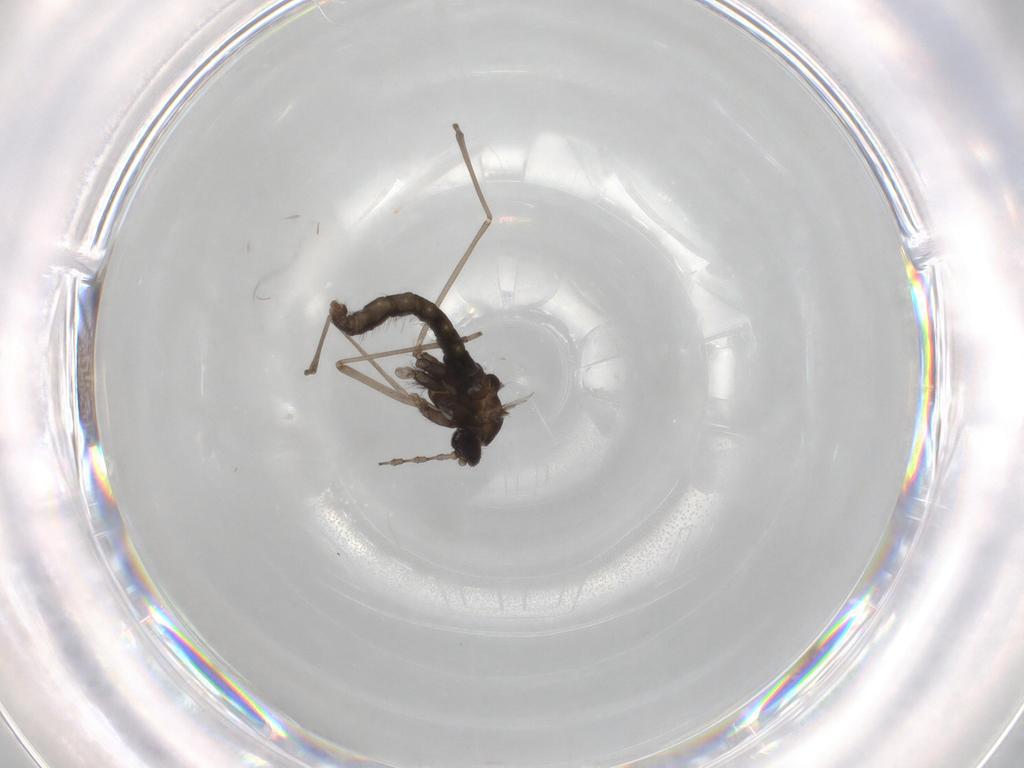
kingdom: Animalia
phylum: Arthropoda
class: Insecta
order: Diptera
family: Cecidomyiidae
